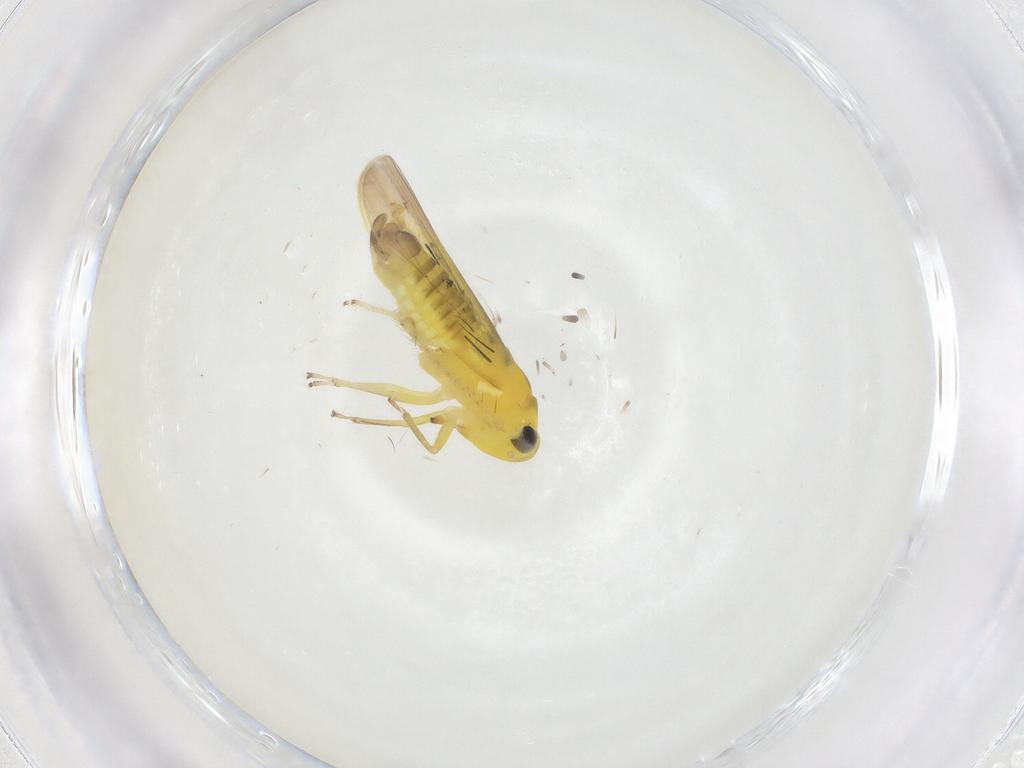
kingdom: Animalia
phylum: Arthropoda
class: Insecta
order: Hemiptera
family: Cicadellidae
